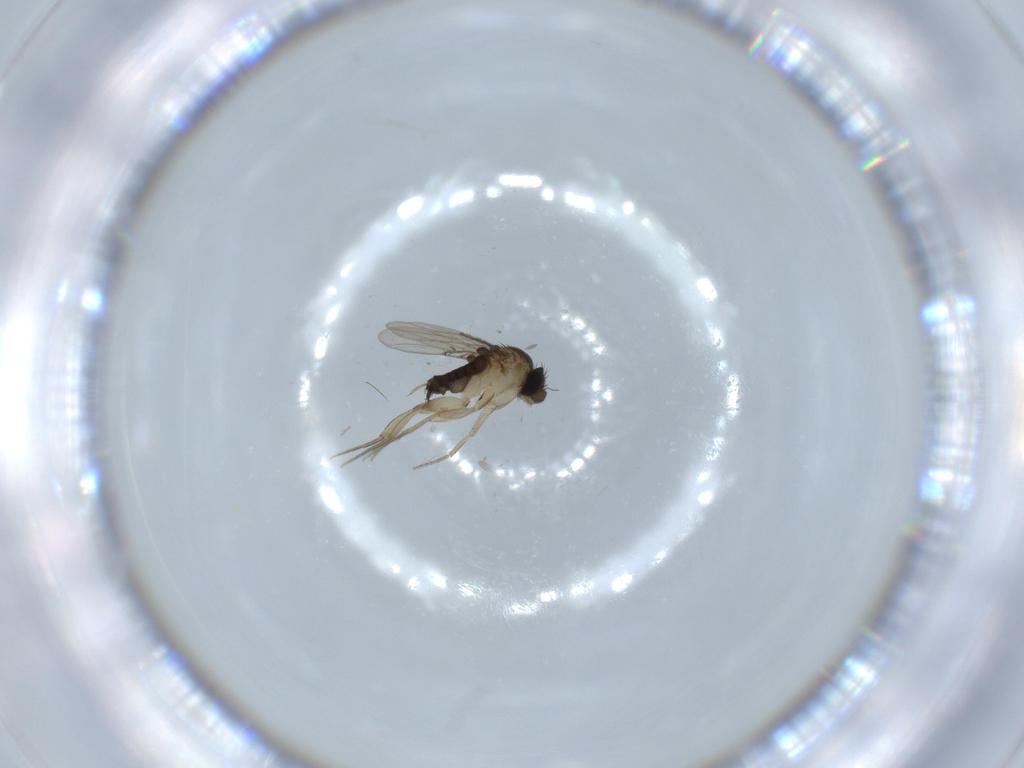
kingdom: Animalia
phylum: Arthropoda
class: Insecta
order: Diptera
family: Phoridae
